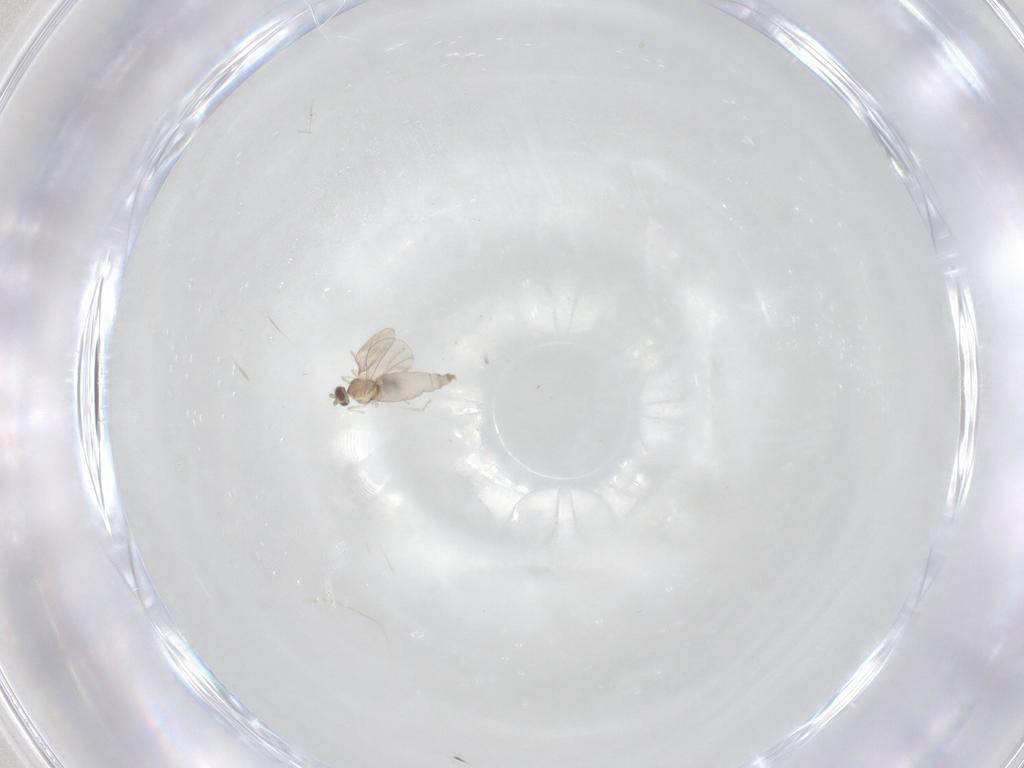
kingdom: Animalia
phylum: Arthropoda
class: Insecta
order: Diptera
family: Cecidomyiidae
